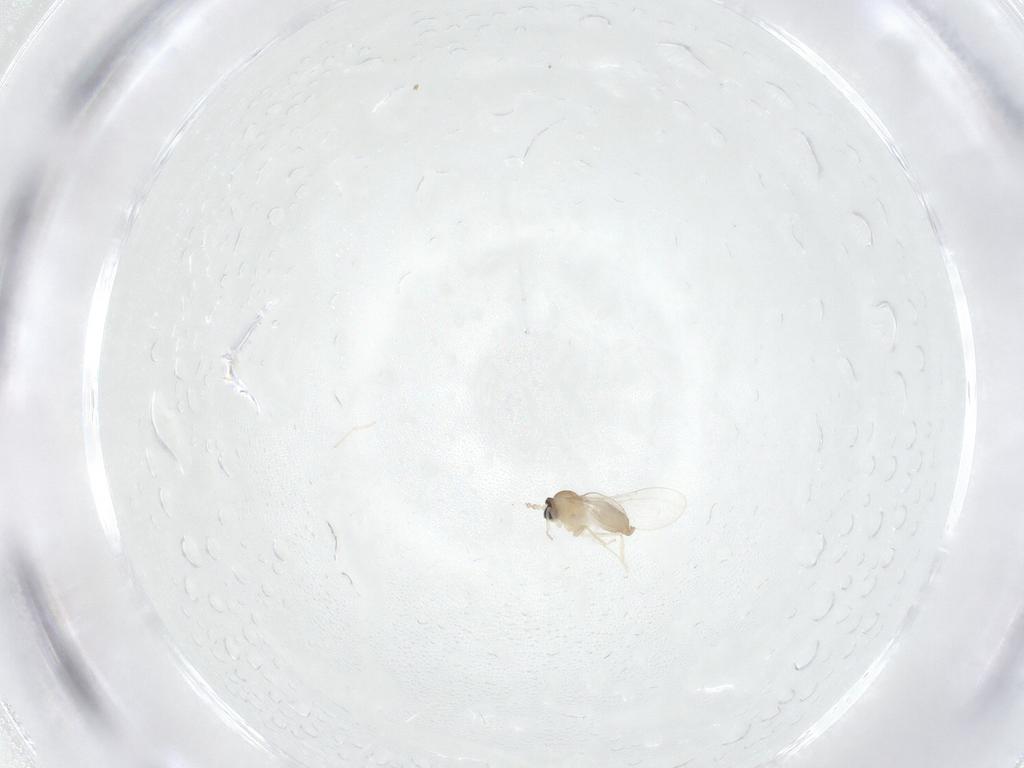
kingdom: Animalia
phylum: Arthropoda
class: Insecta
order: Diptera
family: Cecidomyiidae
